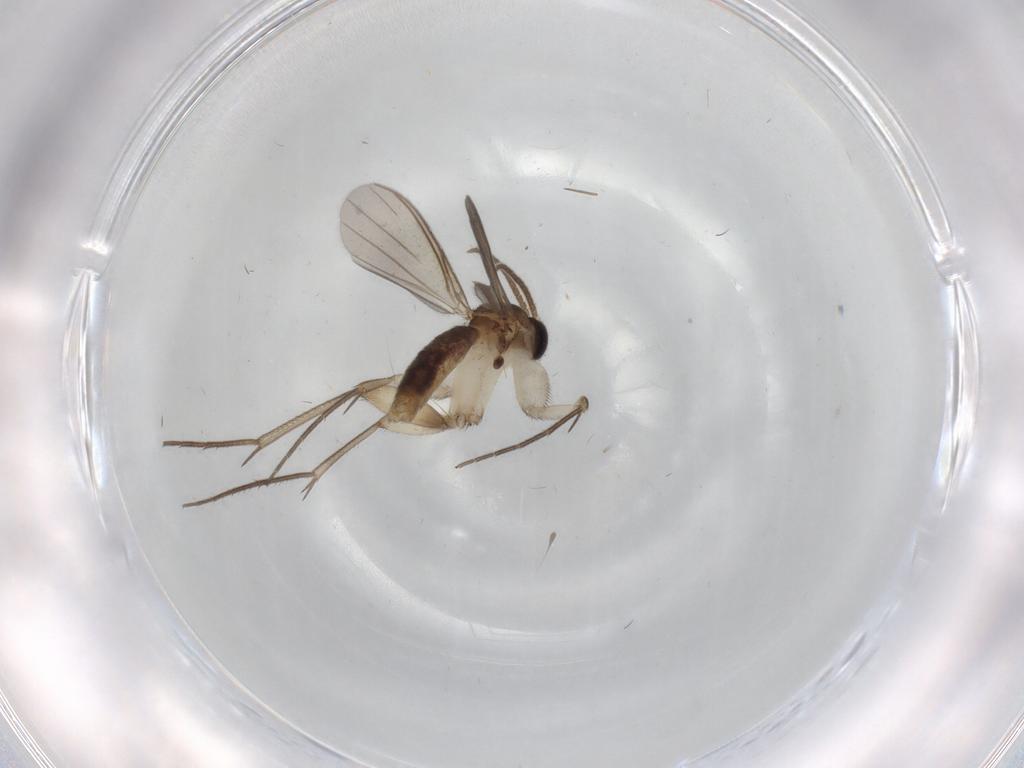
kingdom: Animalia
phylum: Arthropoda
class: Insecta
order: Diptera
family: Mycetophilidae
